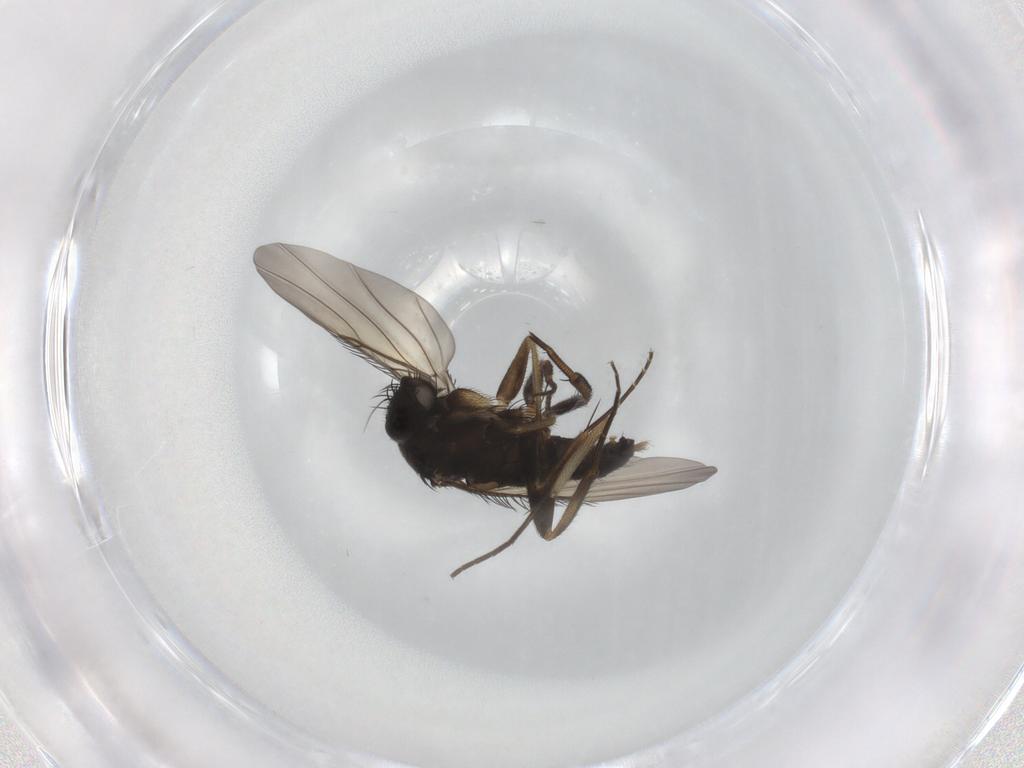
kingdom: Animalia
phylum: Arthropoda
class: Insecta
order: Diptera
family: Phoridae
